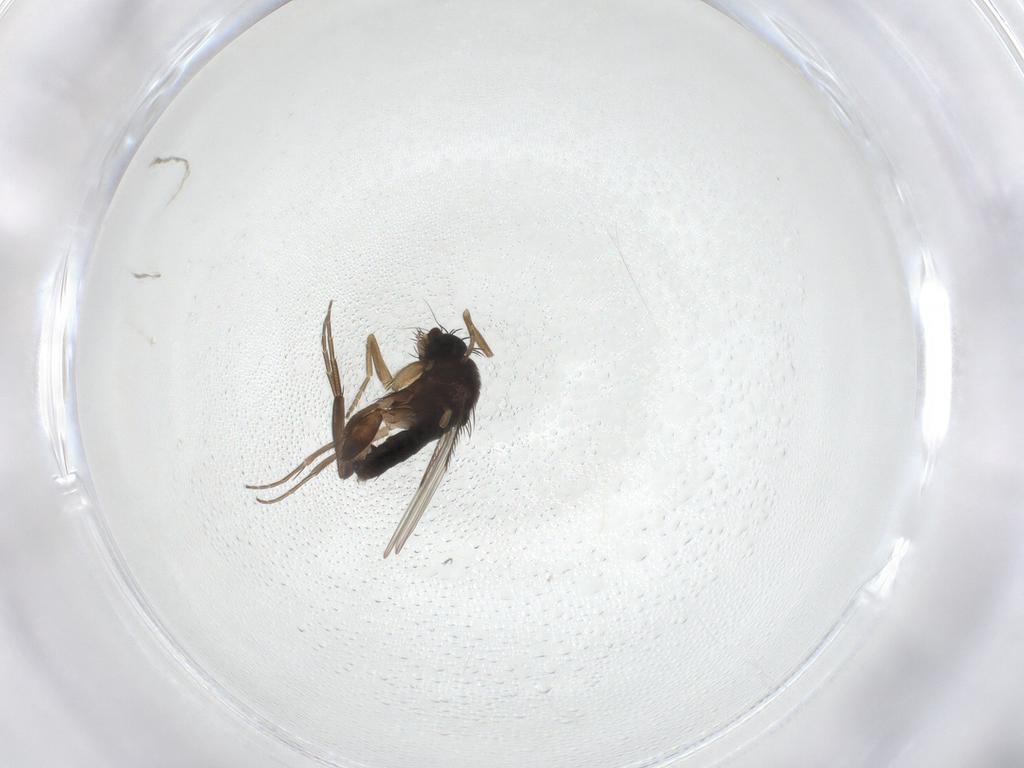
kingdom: Animalia
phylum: Arthropoda
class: Insecta
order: Diptera
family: Phoridae
